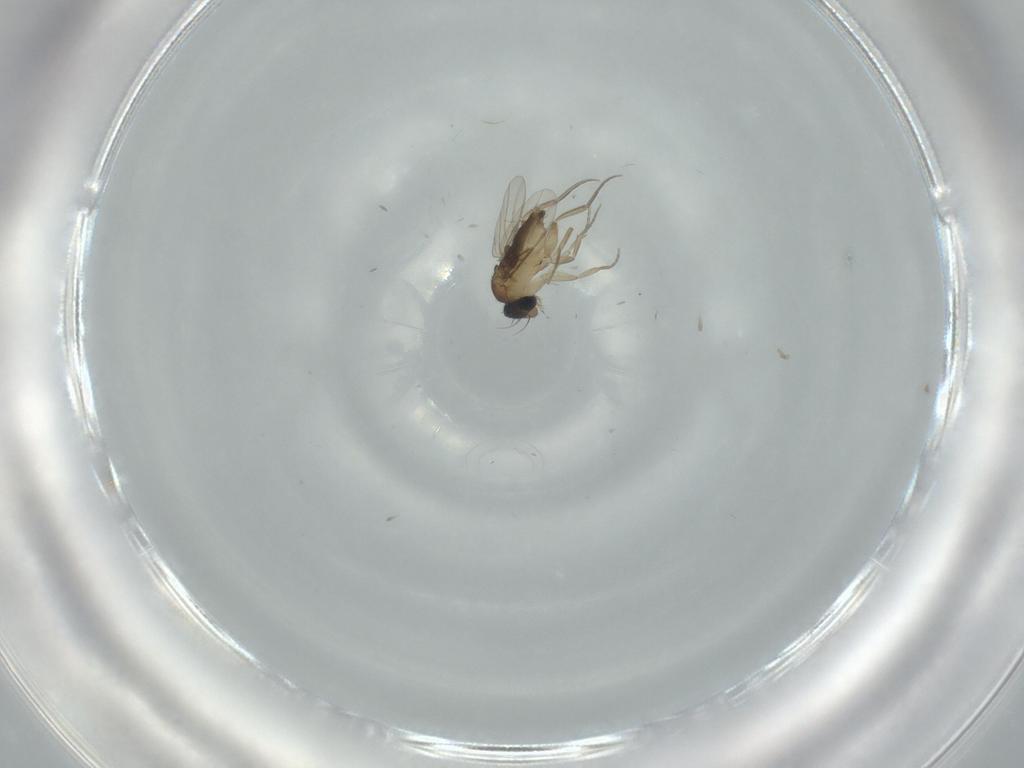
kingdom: Animalia
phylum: Arthropoda
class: Insecta
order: Diptera
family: Phoridae
